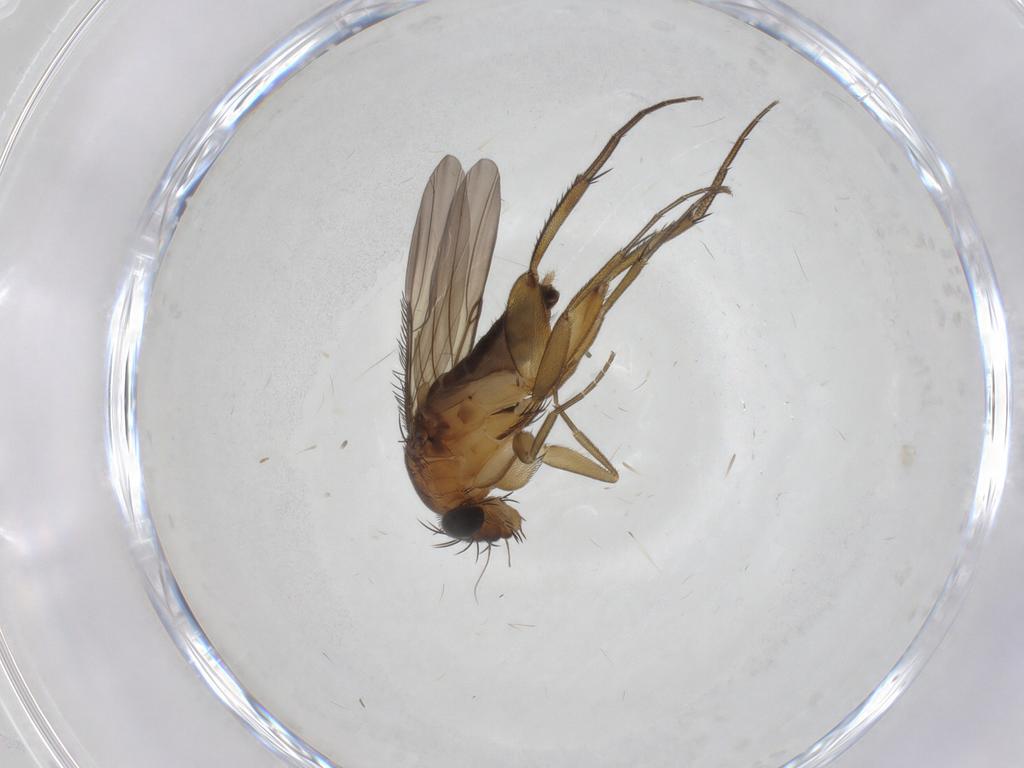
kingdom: Animalia
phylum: Arthropoda
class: Insecta
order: Diptera
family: Phoridae
